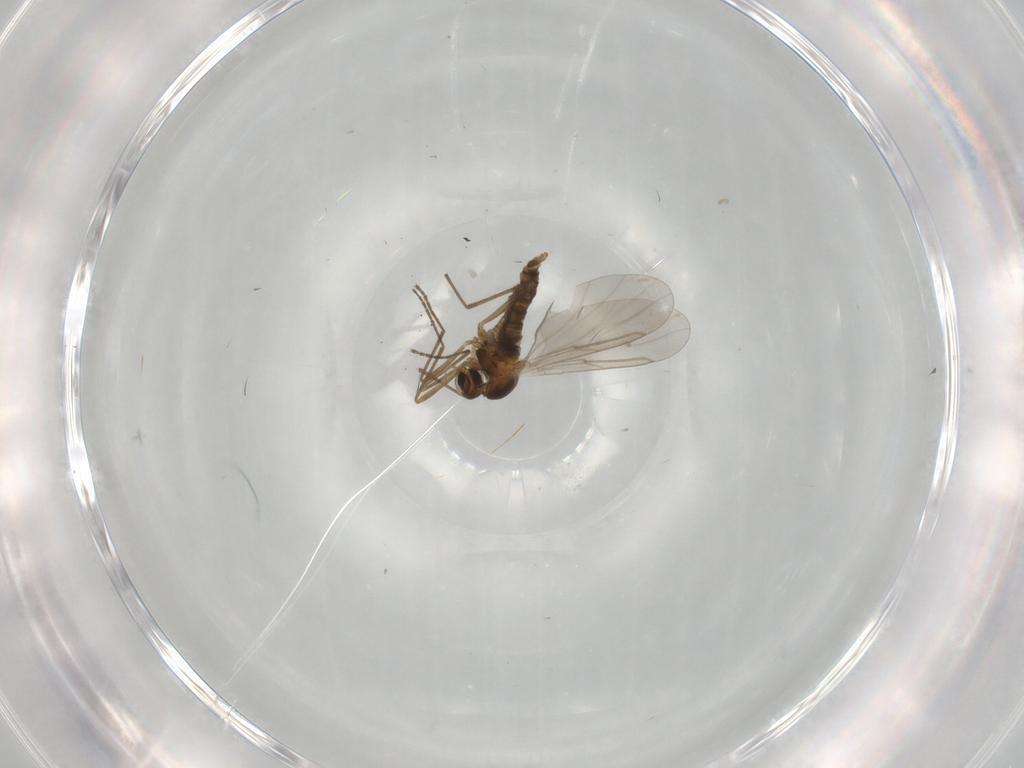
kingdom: Animalia
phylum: Arthropoda
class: Insecta
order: Diptera
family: Cecidomyiidae
